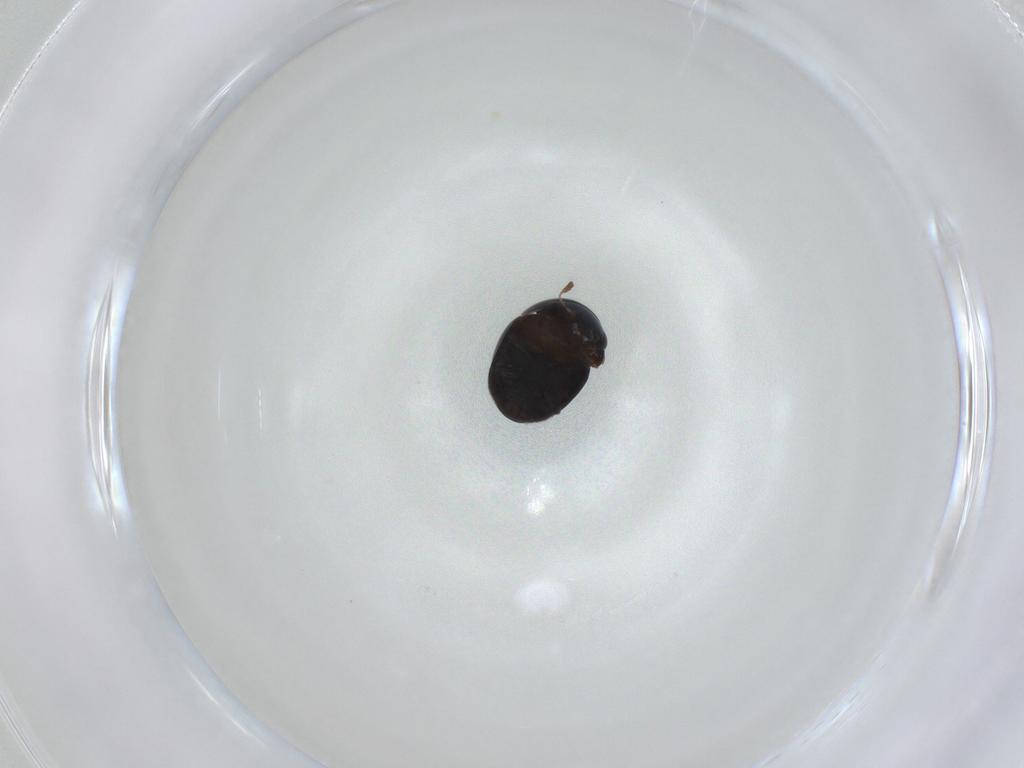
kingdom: Animalia
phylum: Arthropoda
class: Insecta
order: Coleoptera
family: Cybocephalidae
